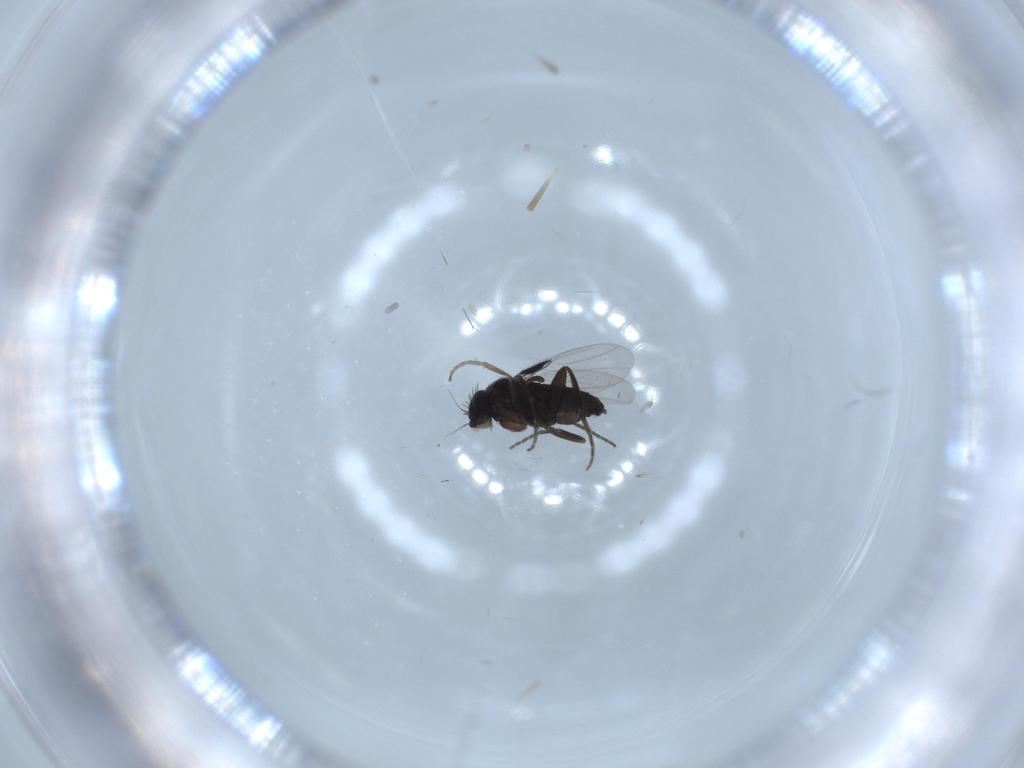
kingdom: Animalia
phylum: Arthropoda
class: Insecta
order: Diptera
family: Phoridae
